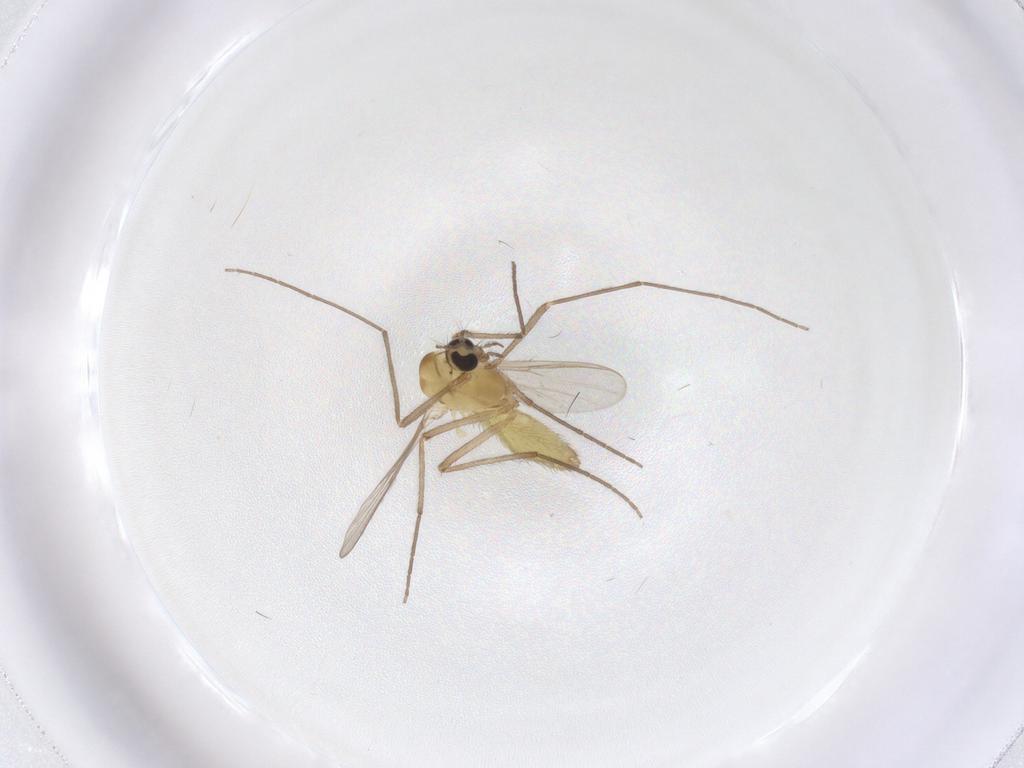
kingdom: Animalia
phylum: Arthropoda
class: Insecta
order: Diptera
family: Chironomidae
